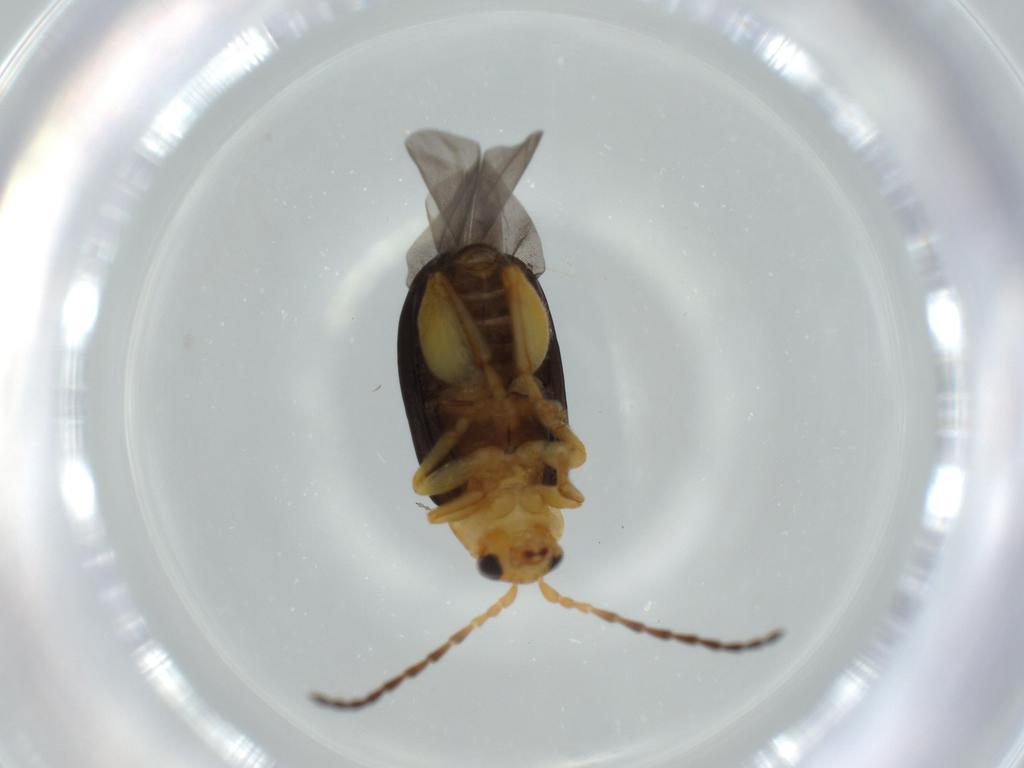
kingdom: Animalia
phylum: Arthropoda
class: Insecta
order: Coleoptera
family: Chrysomelidae
